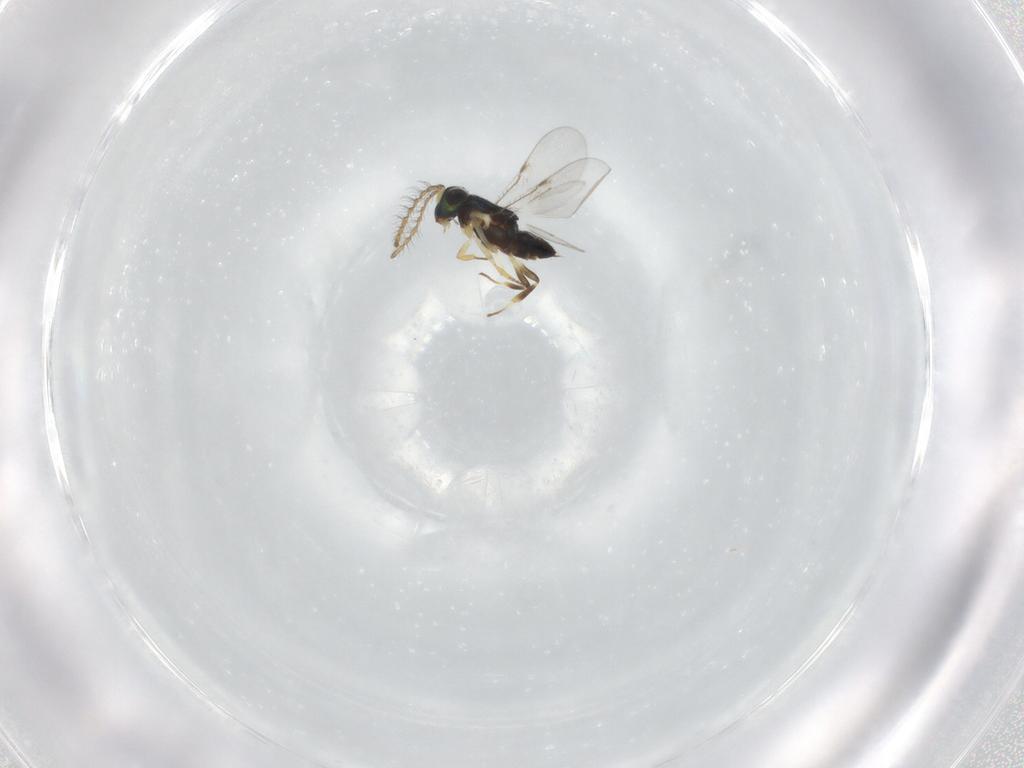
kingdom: Animalia
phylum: Arthropoda
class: Insecta
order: Hymenoptera
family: Encyrtidae
